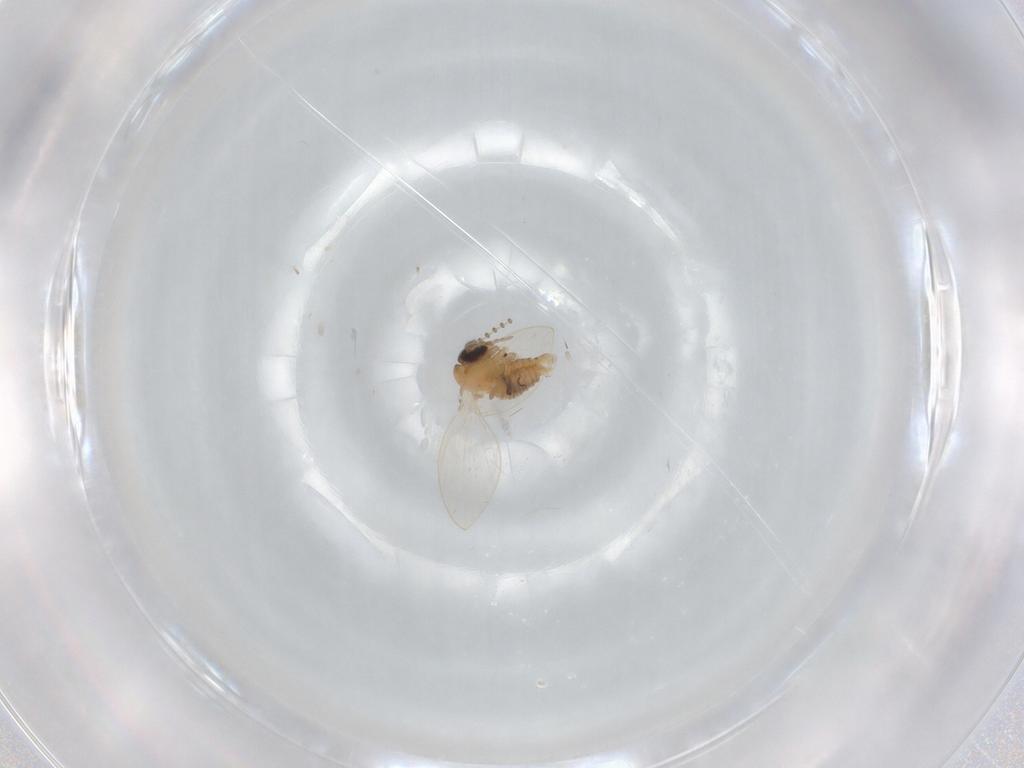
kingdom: Animalia
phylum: Arthropoda
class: Insecta
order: Diptera
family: Psychodidae
